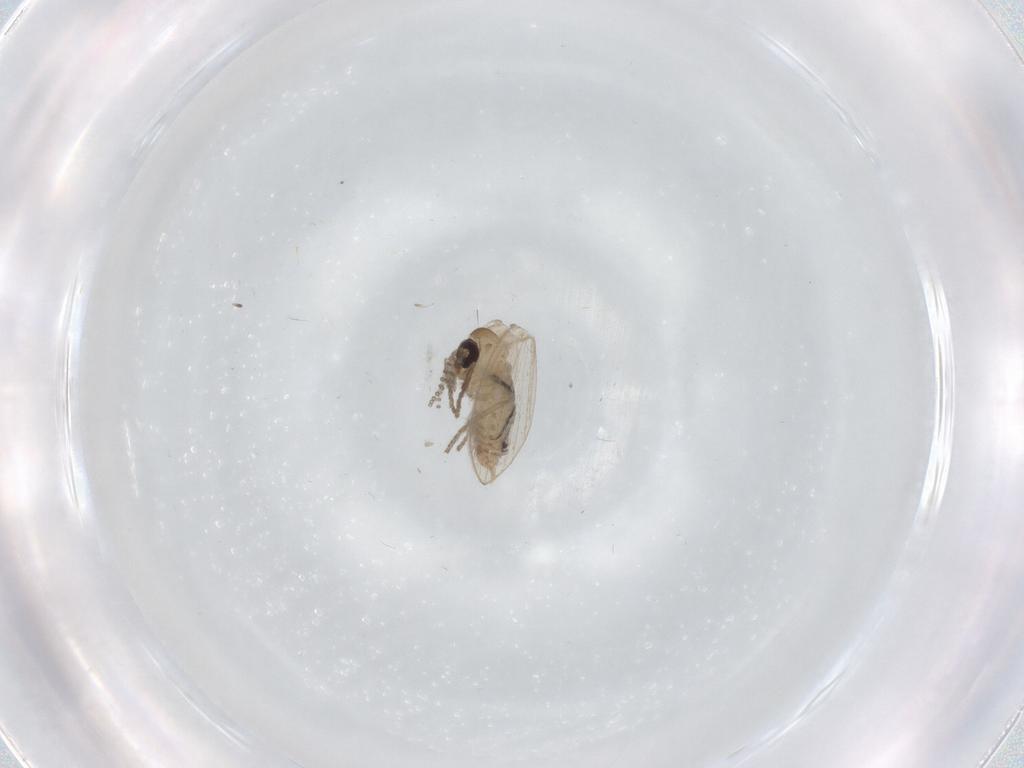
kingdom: Animalia
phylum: Arthropoda
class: Insecta
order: Diptera
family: Psychodidae
